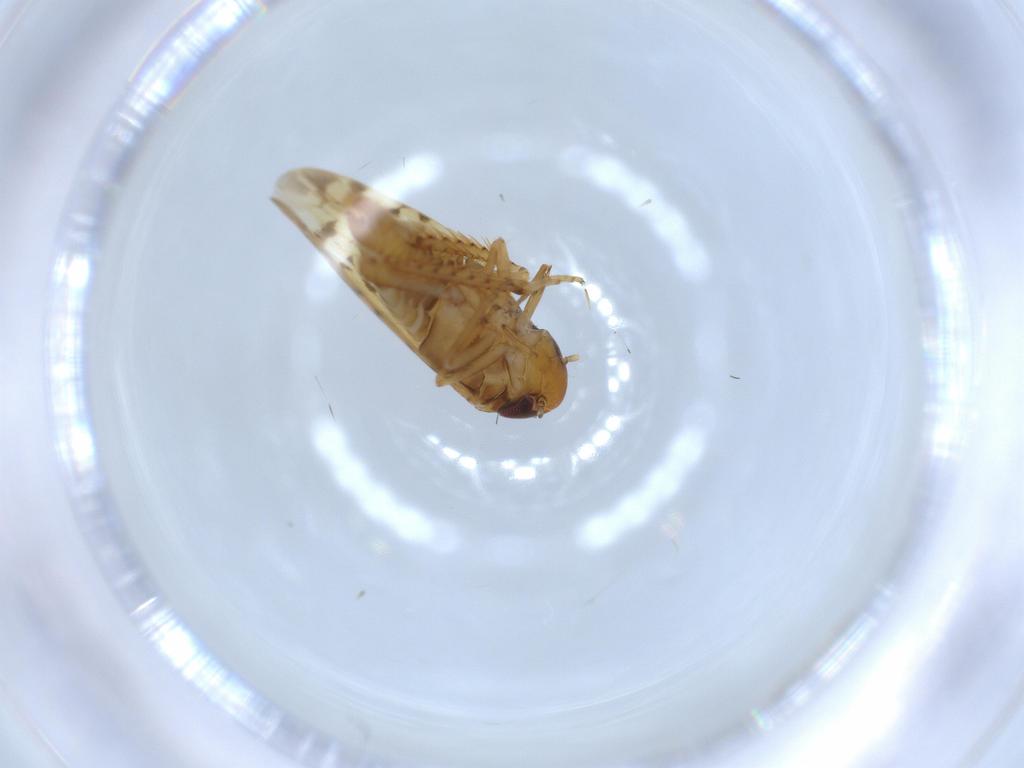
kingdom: Animalia
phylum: Arthropoda
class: Insecta
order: Hemiptera
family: Cicadellidae
